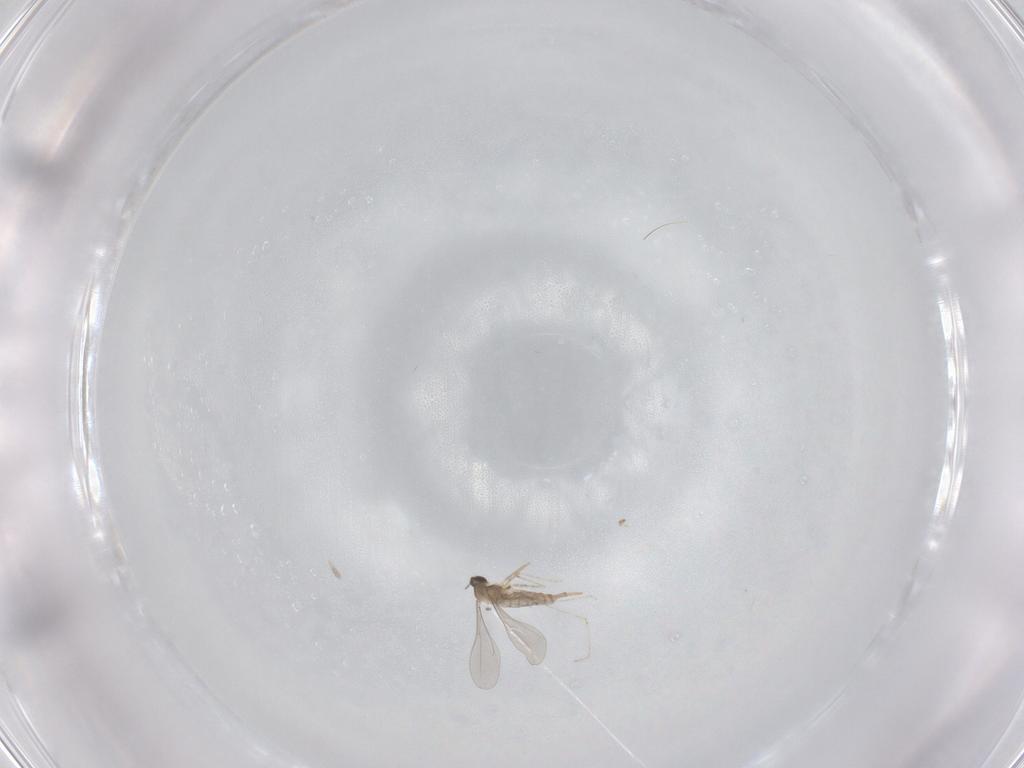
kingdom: Animalia
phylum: Arthropoda
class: Insecta
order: Diptera
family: Cecidomyiidae
